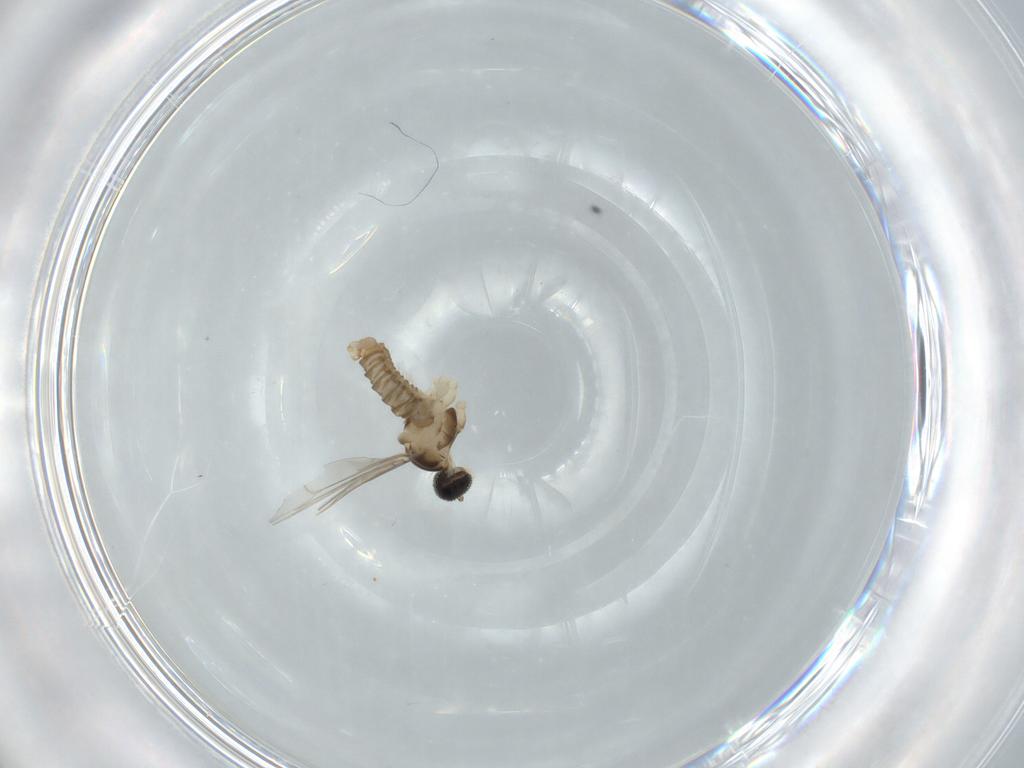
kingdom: Animalia
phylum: Arthropoda
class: Insecta
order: Diptera
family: Cecidomyiidae
